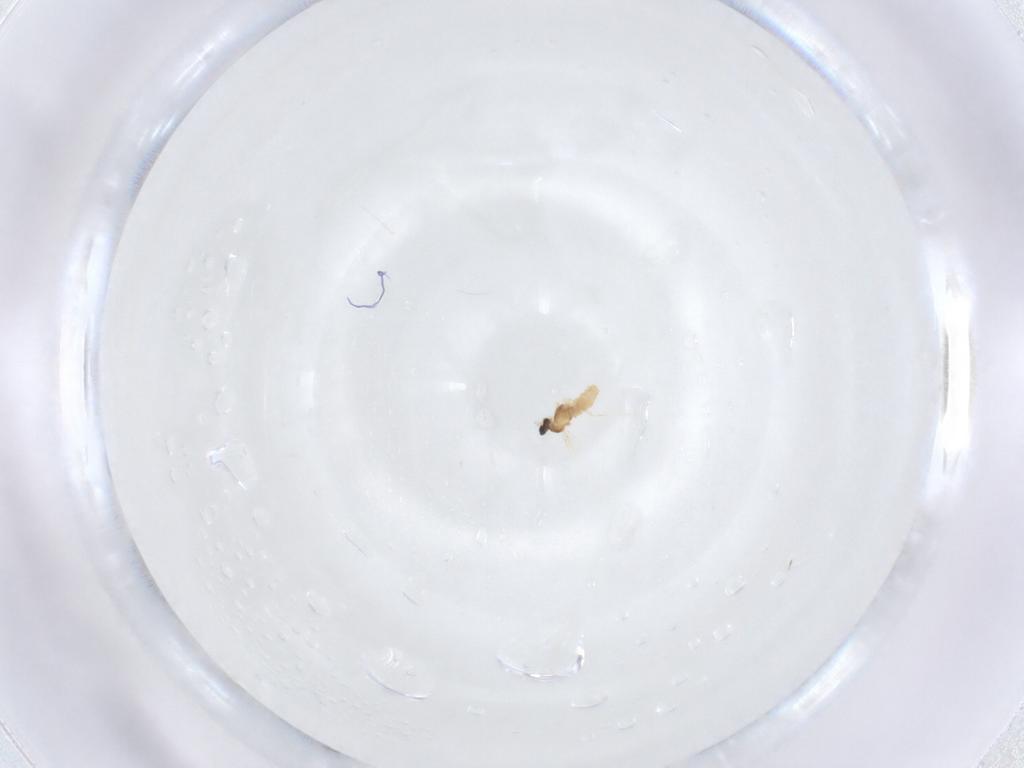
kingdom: Animalia
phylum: Arthropoda
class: Insecta
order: Diptera
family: Cecidomyiidae
